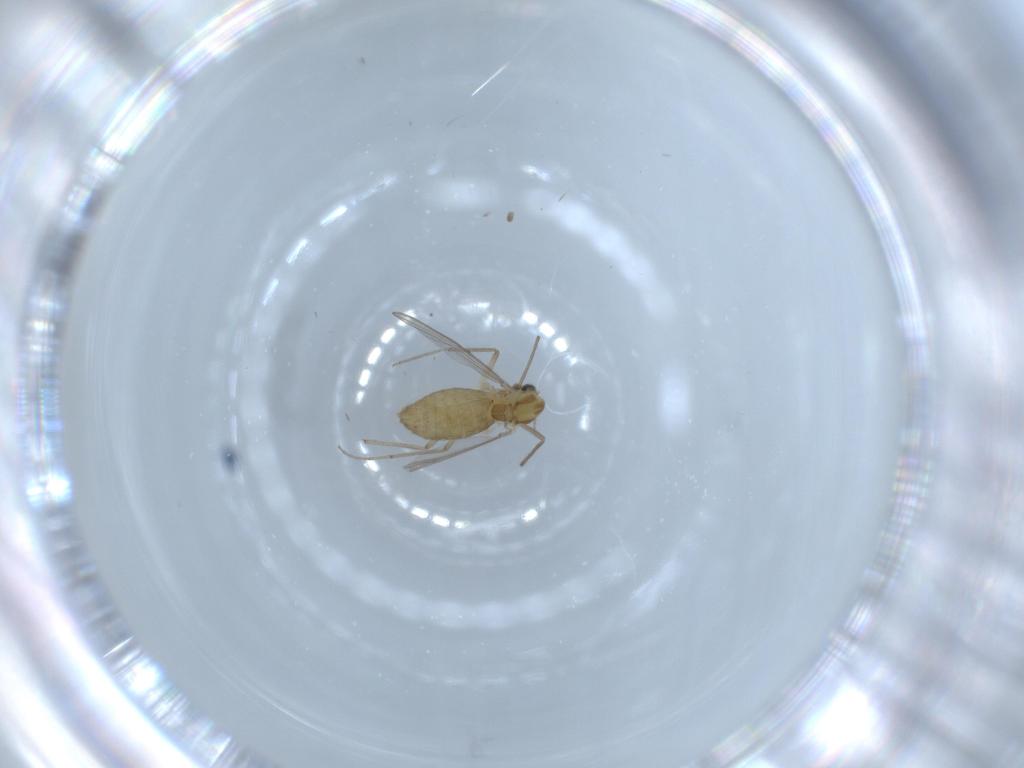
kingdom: Animalia
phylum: Arthropoda
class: Insecta
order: Diptera
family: Chironomidae
